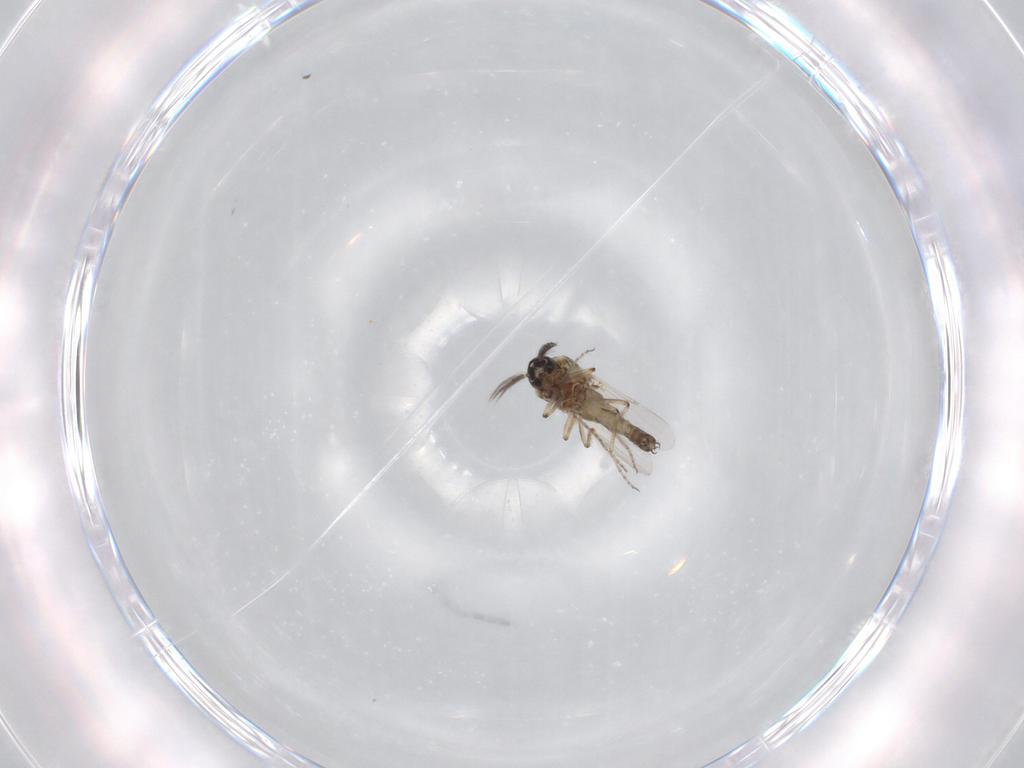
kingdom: Animalia
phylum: Arthropoda
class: Insecta
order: Diptera
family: Ceratopogonidae
